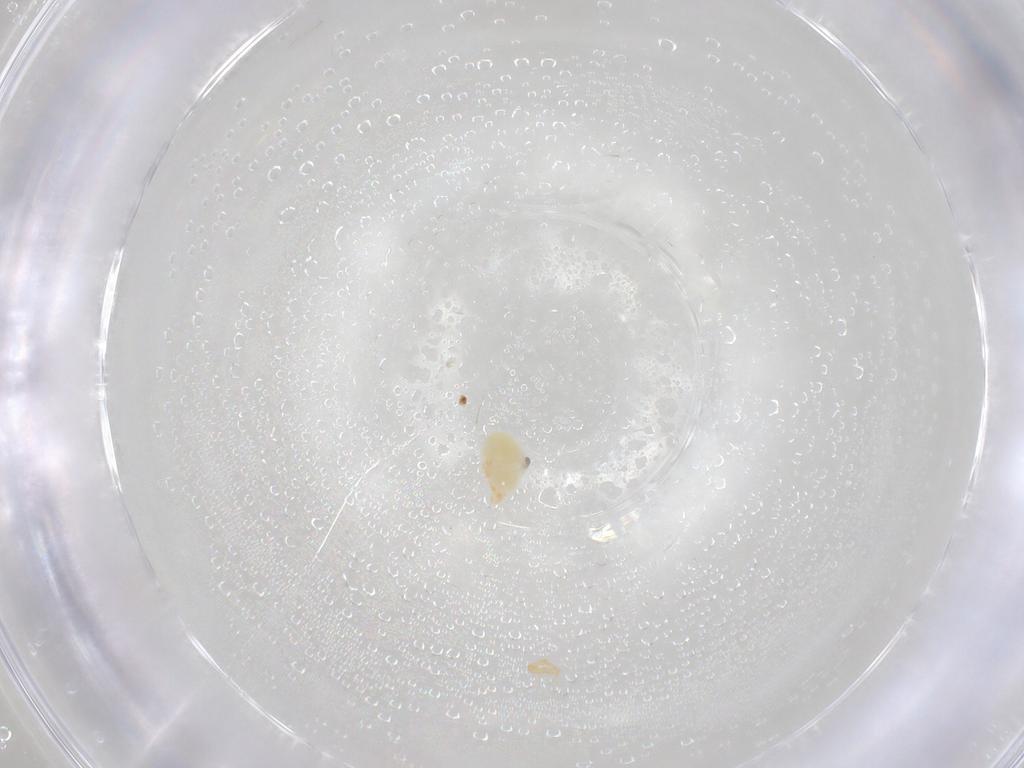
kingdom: Animalia
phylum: Arthropoda
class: Arachnida
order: Trombidiformes
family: Eupodidae
